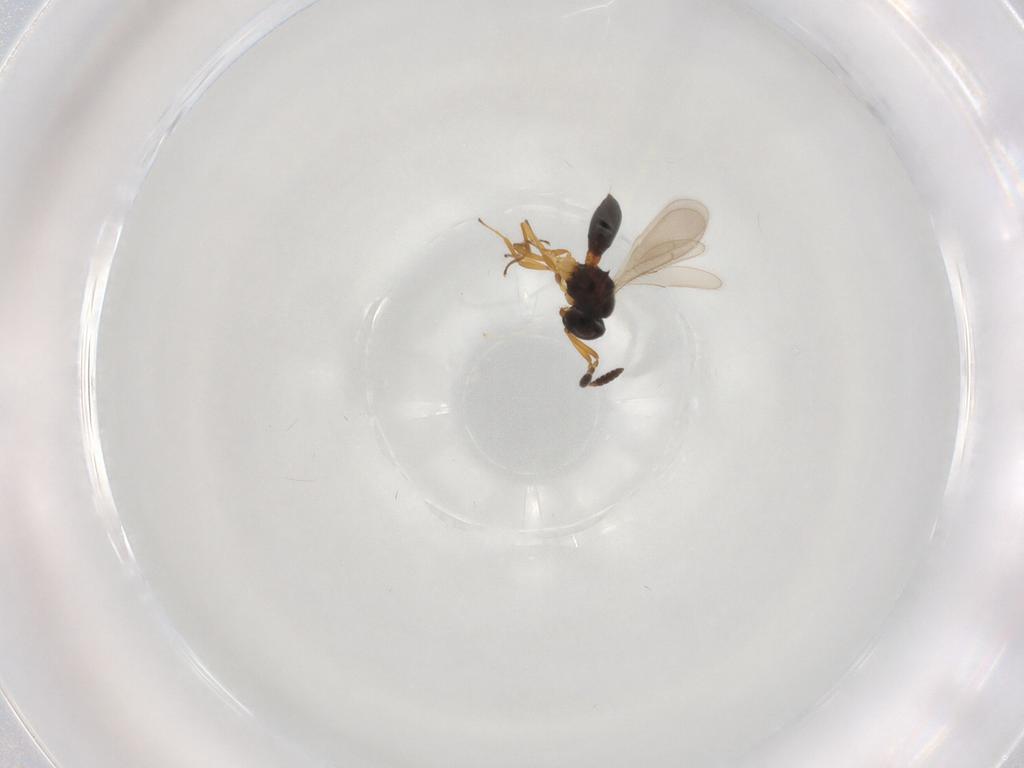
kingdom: Animalia
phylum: Arthropoda
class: Insecta
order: Hymenoptera
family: Scelionidae
